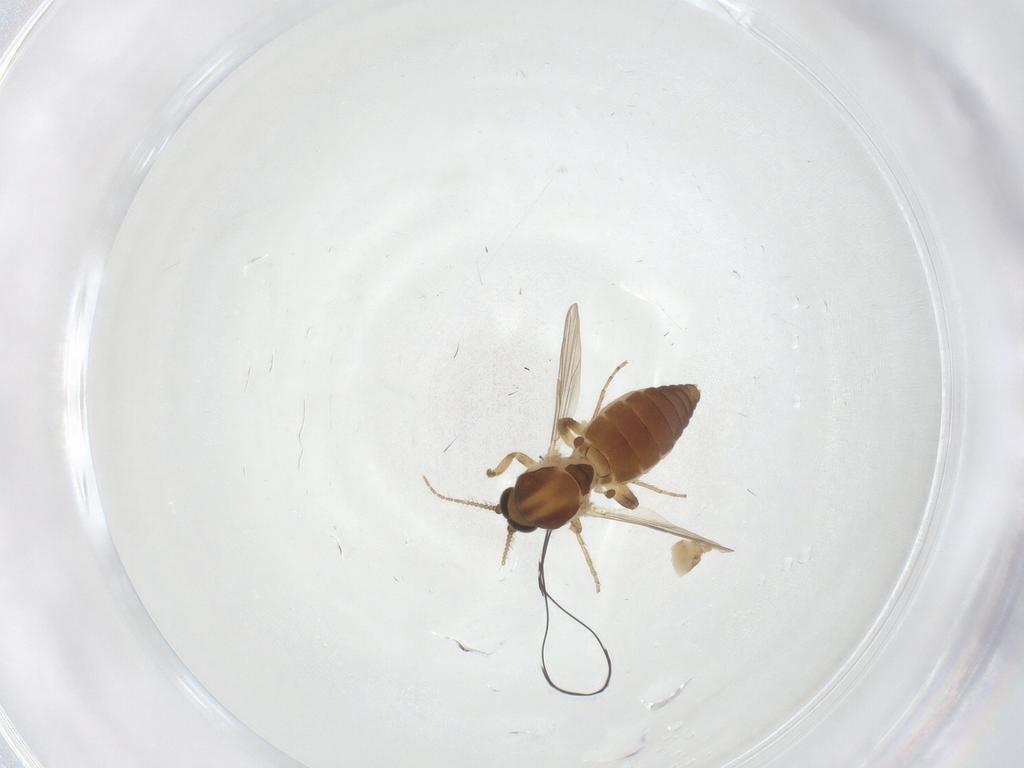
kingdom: Animalia
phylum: Arthropoda
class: Insecta
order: Diptera
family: Ceratopogonidae
